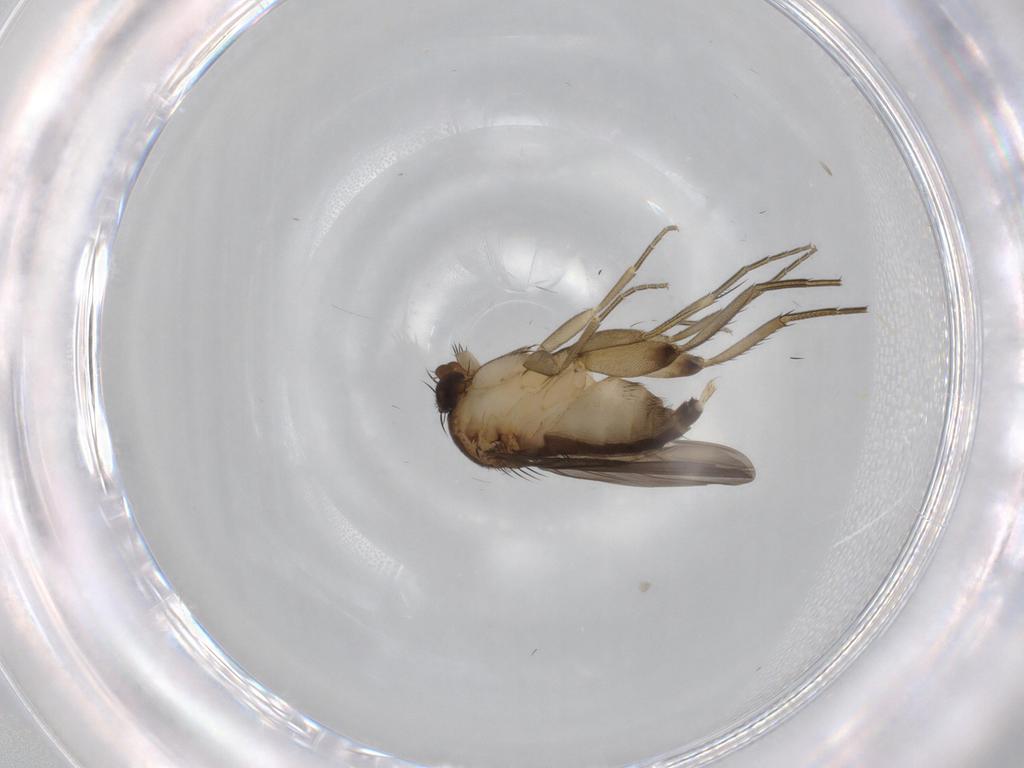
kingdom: Animalia
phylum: Arthropoda
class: Insecta
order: Diptera
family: Phoridae
